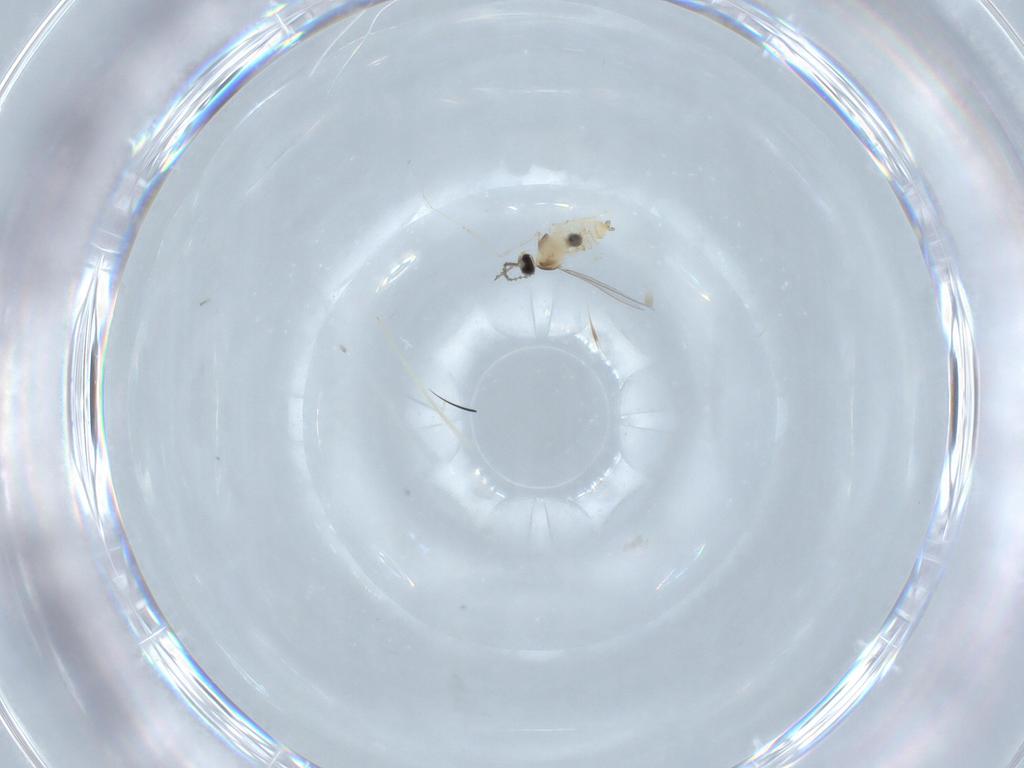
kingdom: Animalia
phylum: Arthropoda
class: Insecta
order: Diptera
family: Cecidomyiidae
